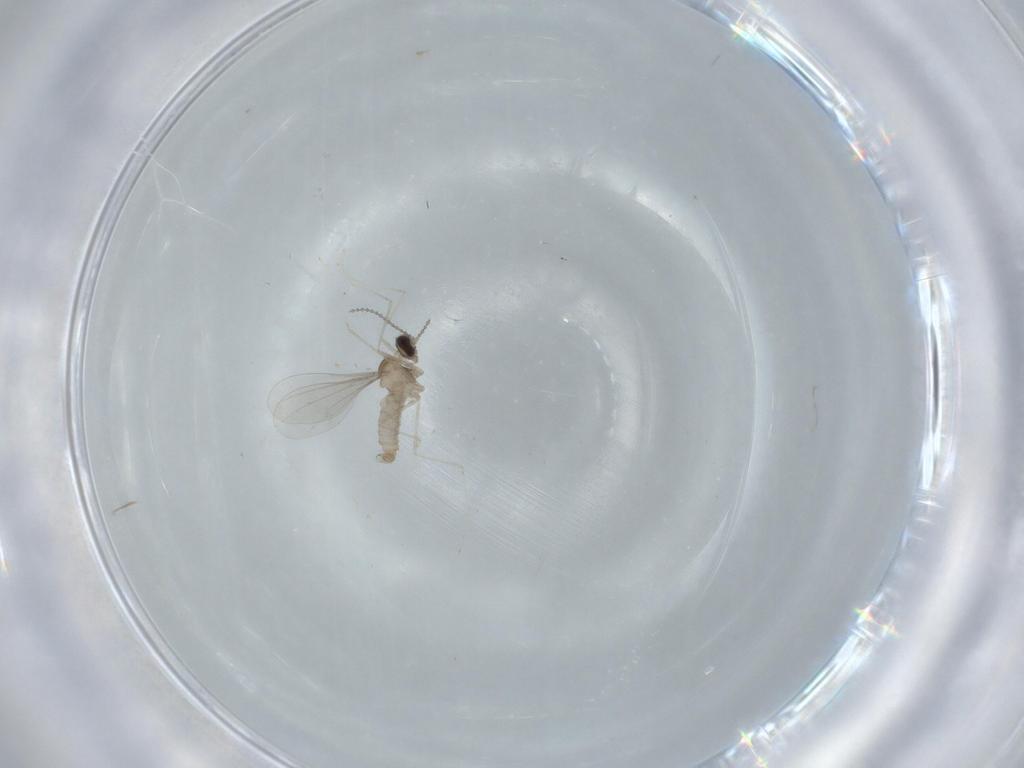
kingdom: Animalia
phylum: Arthropoda
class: Insecta
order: Diptera
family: Cecidomyiidae
